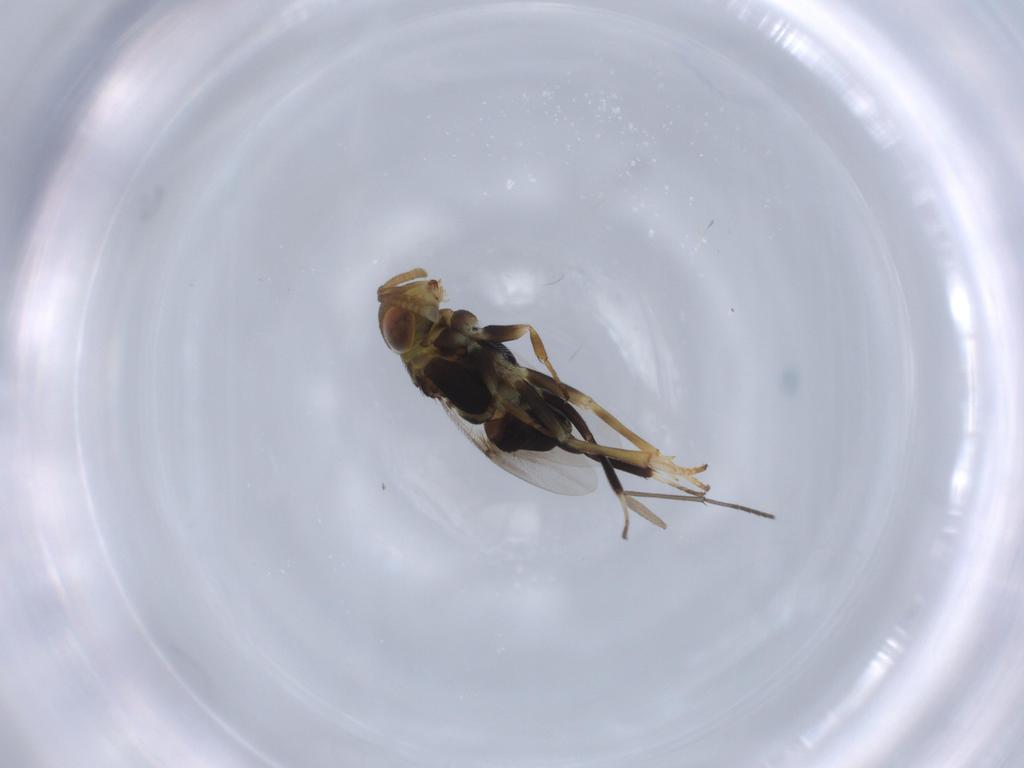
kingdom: Animalia
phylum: Arthropoda
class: Insecta
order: Hymenoptera
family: Encyrtidae
